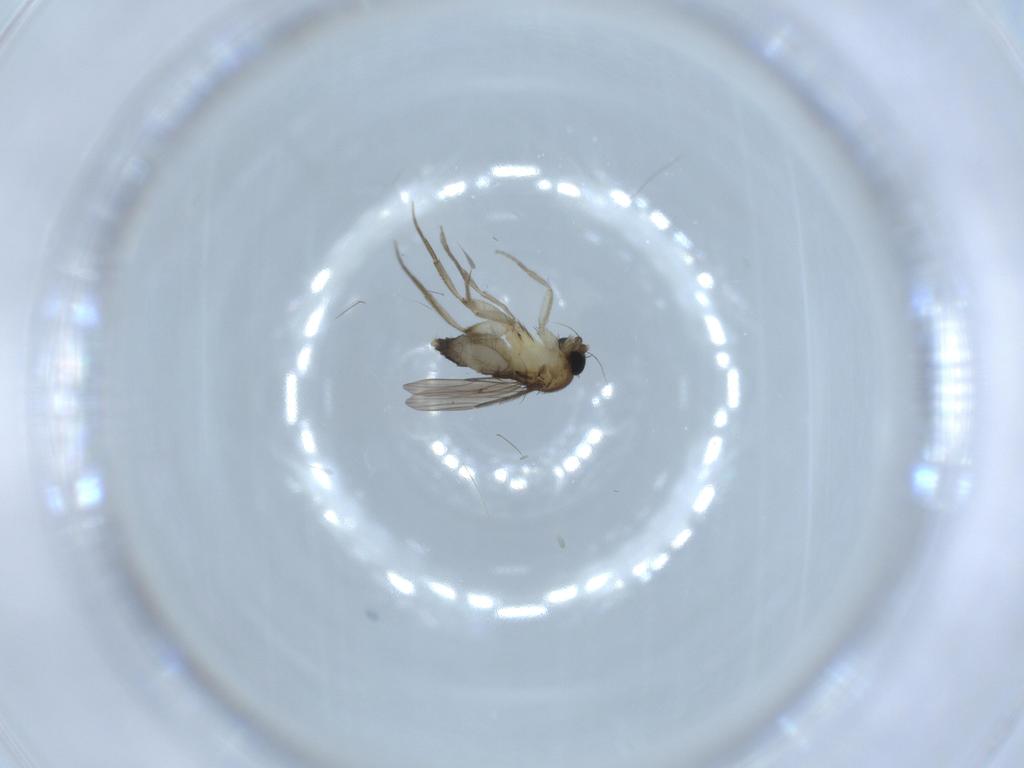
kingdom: Animalia
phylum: Arthropoda
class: Insecta
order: Diptera
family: Phoridae
